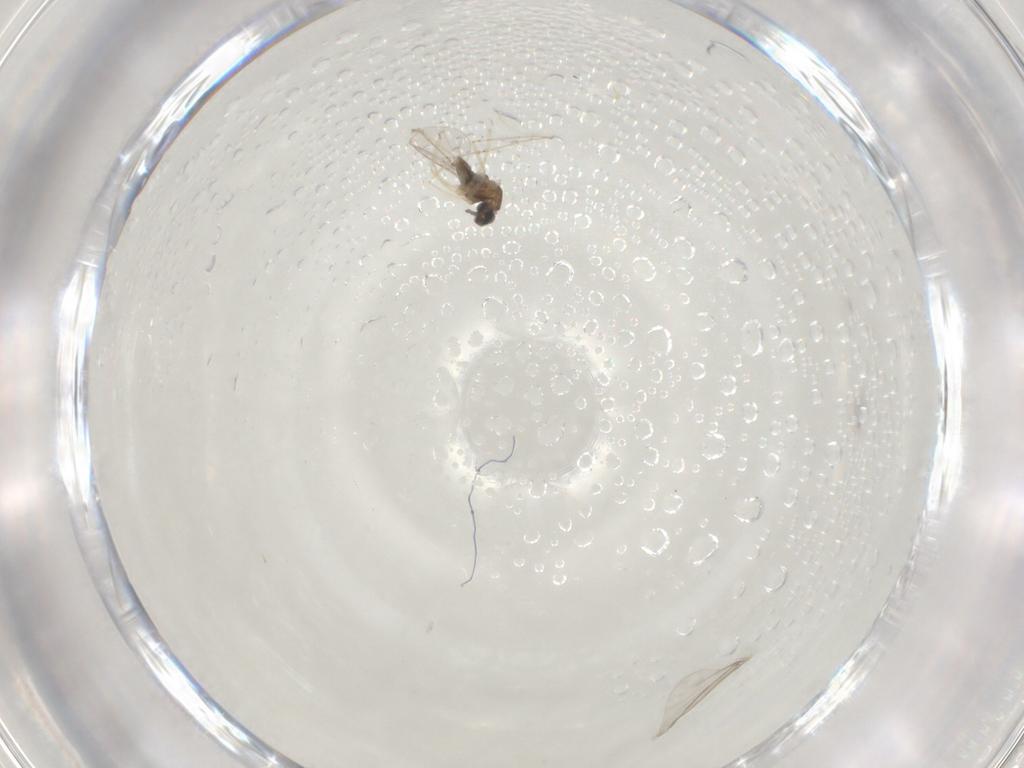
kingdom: Animalia
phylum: Arthropoda
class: Insecta
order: Diptera
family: Cecidomyiidae
